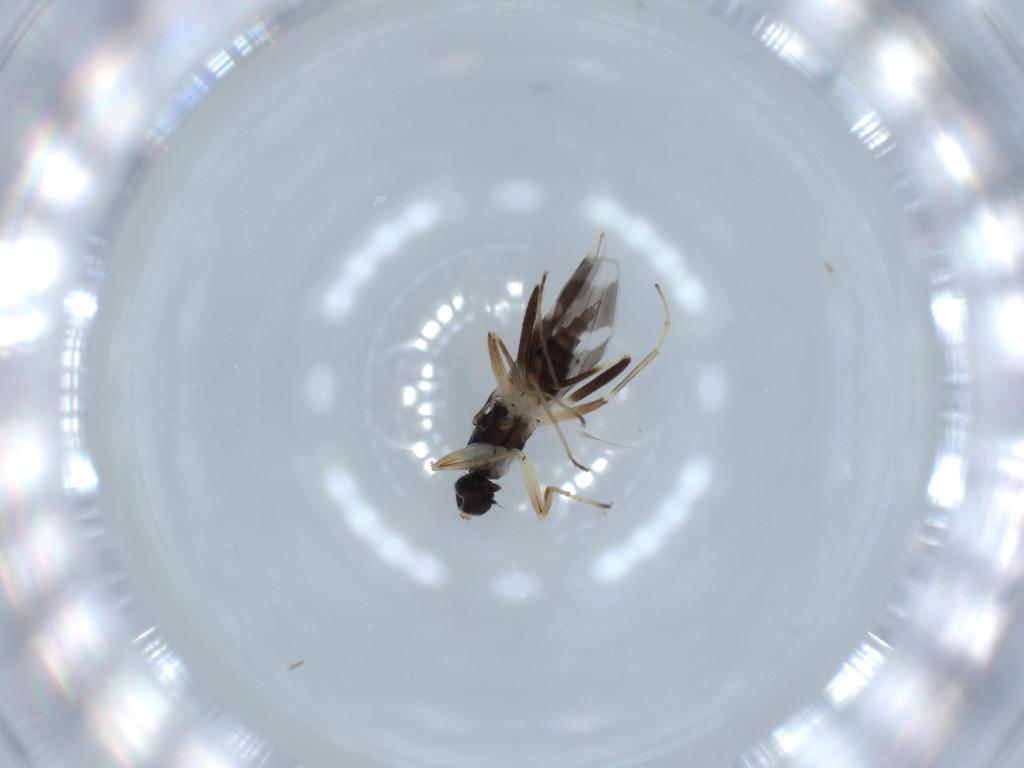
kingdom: Animalia
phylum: Arthropoda
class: Insecta
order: Diptera
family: Hybotidae
